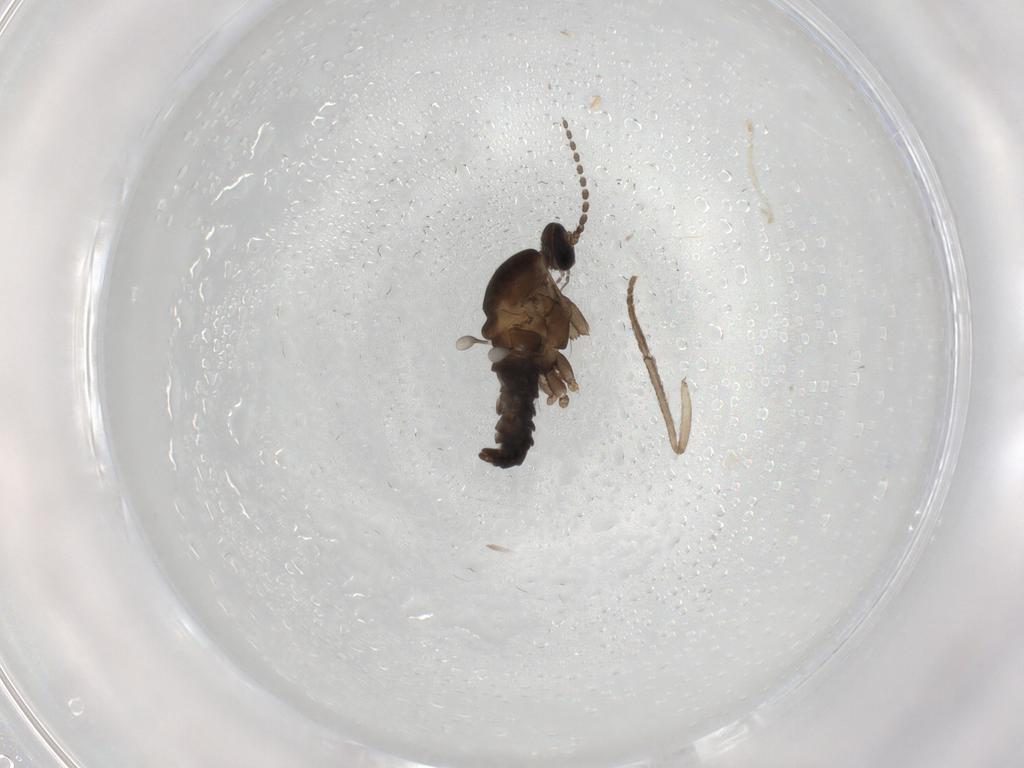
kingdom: Animalia
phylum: Arthropoda
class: Insecta
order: Diptera
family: Cecidomyiidae
